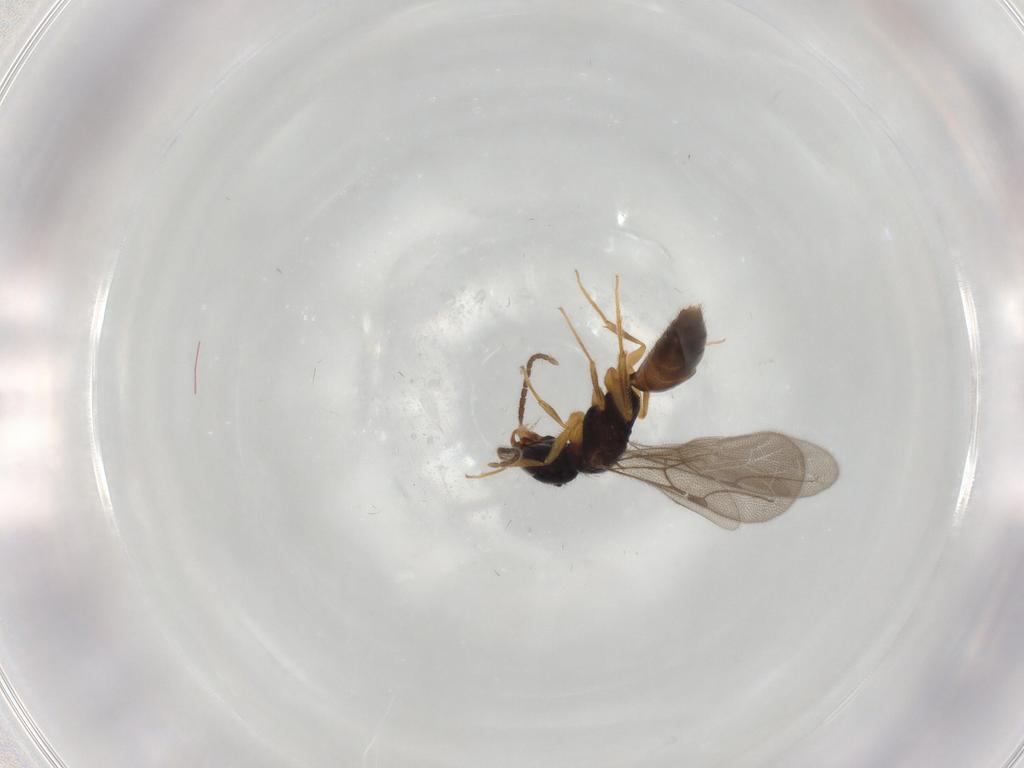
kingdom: Animalia
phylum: Arthropoda
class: Insecta
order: Hymenoptera
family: Bethylidae
